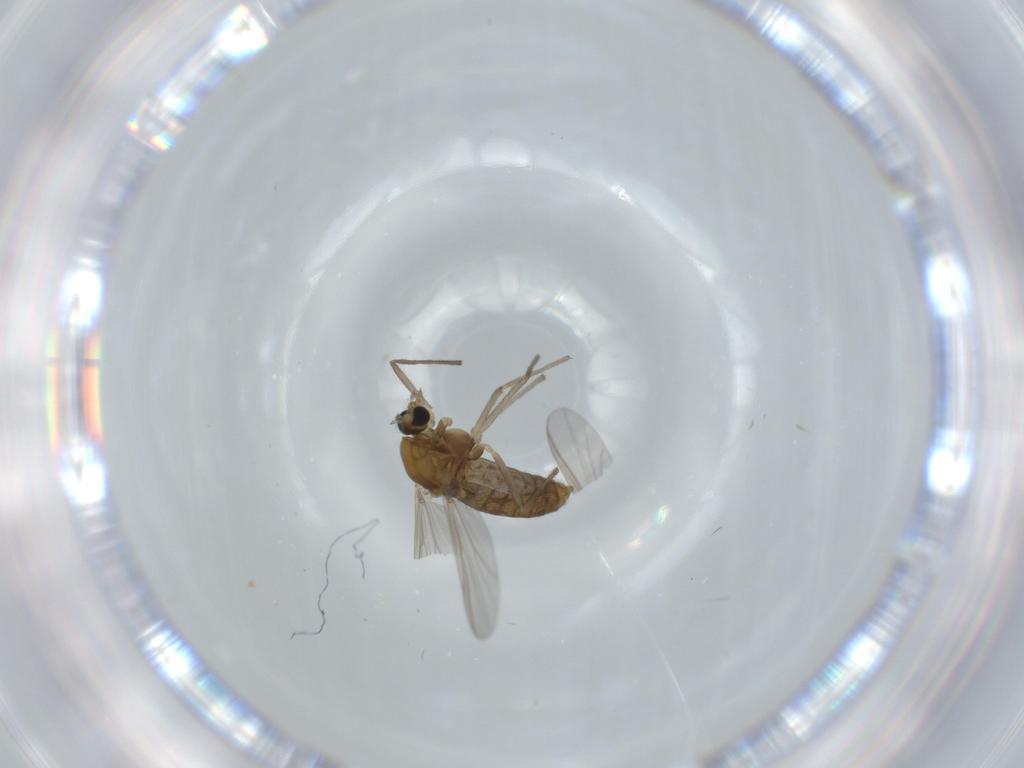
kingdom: Animalia
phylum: Arthropoda
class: Insecta
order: Diptera
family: Chironomidae
